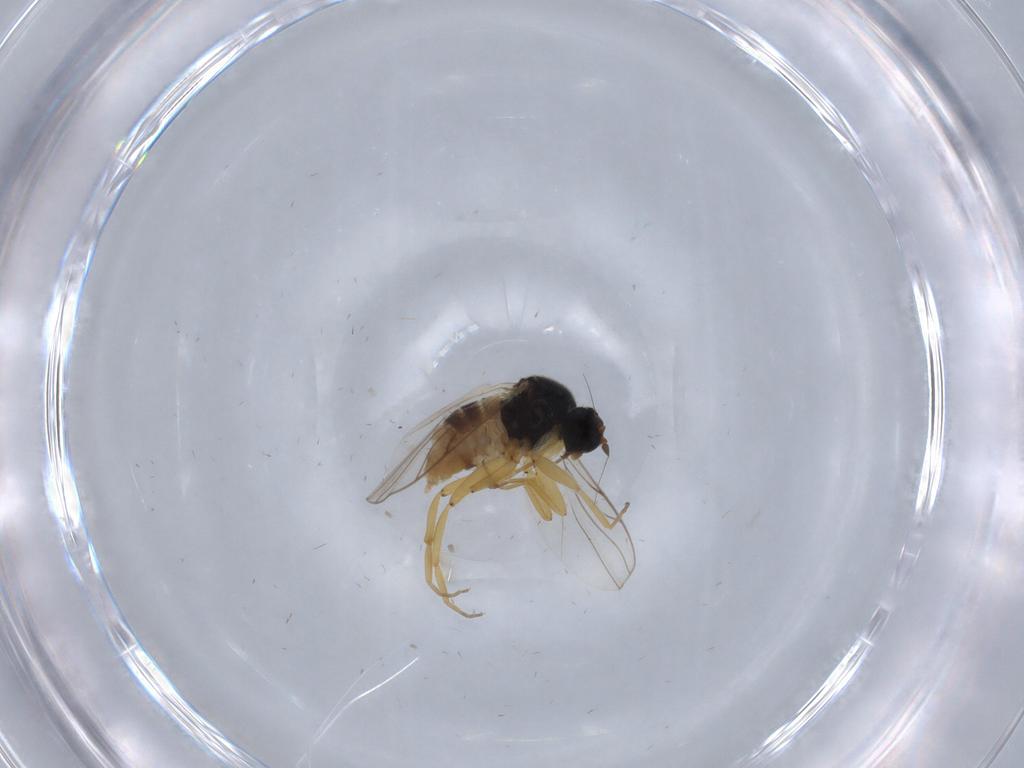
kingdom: Animalia
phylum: Arthropoda
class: Insecta
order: Diptera
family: Hybotidae
